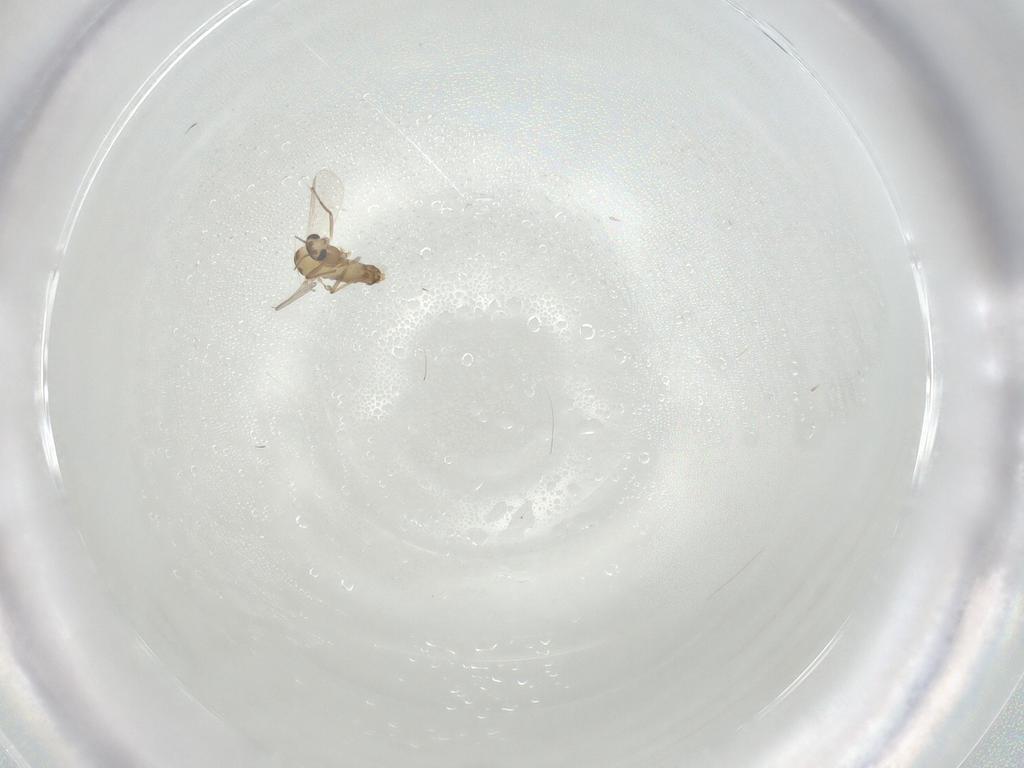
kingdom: Animalia
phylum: Arthropoda
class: Insecta
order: Diptera
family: Chironomidae
